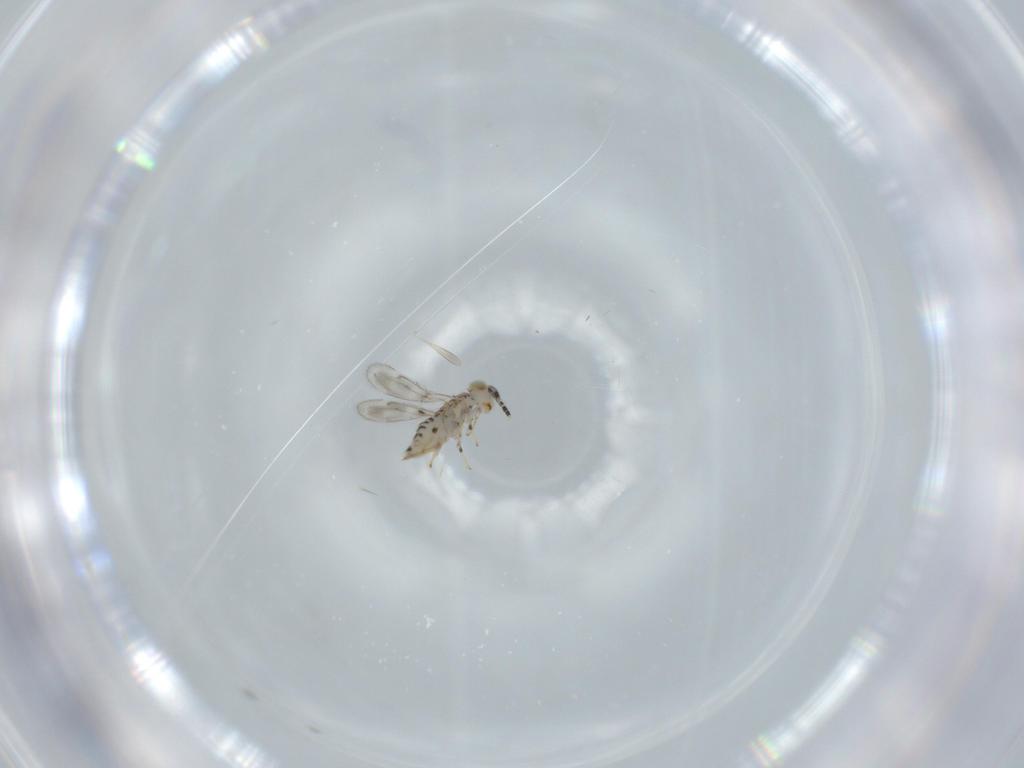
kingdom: Animalia
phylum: Arthropoda
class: Insecta
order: Hymenoptera
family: Aphelinidae
